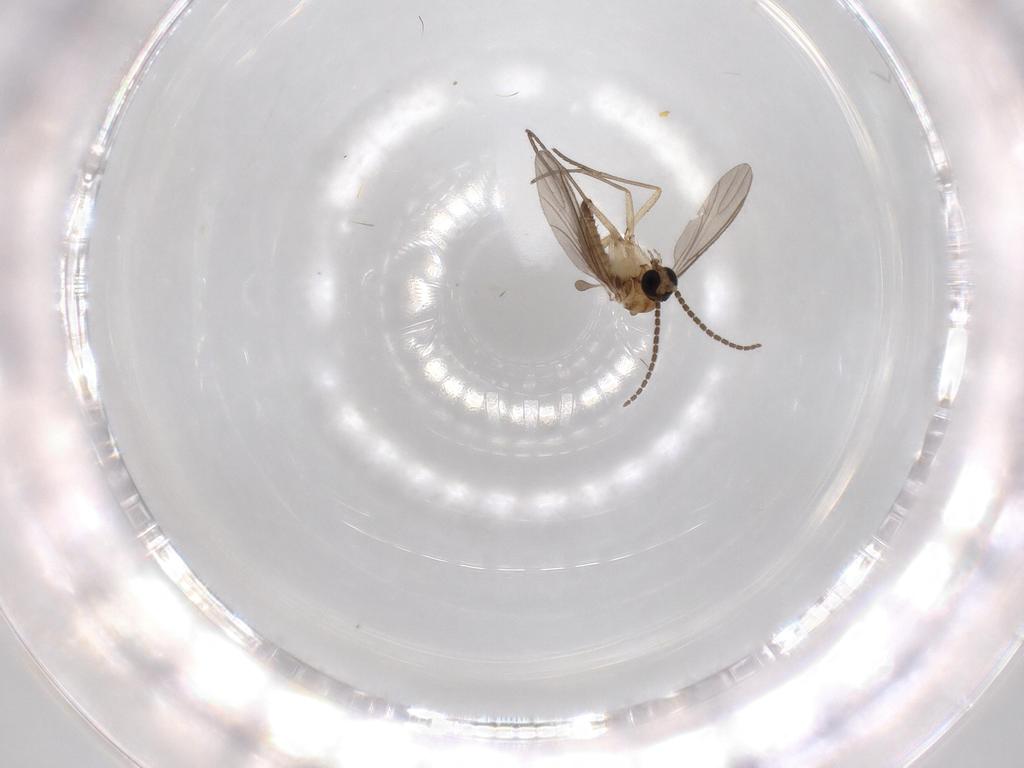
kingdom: Animalia
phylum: Arthropoda
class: Insecta
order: Diptera
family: Sciaridae
